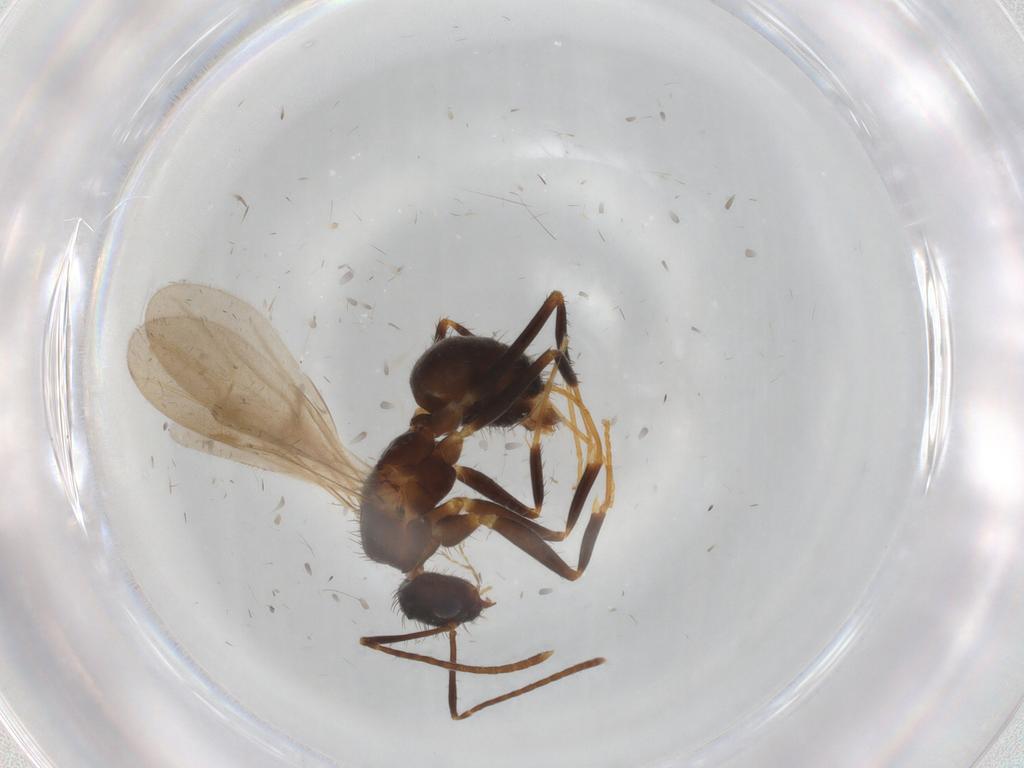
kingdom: Animalia
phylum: Arthropoda
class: Insecta
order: Hymenoptera
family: Formicidae
